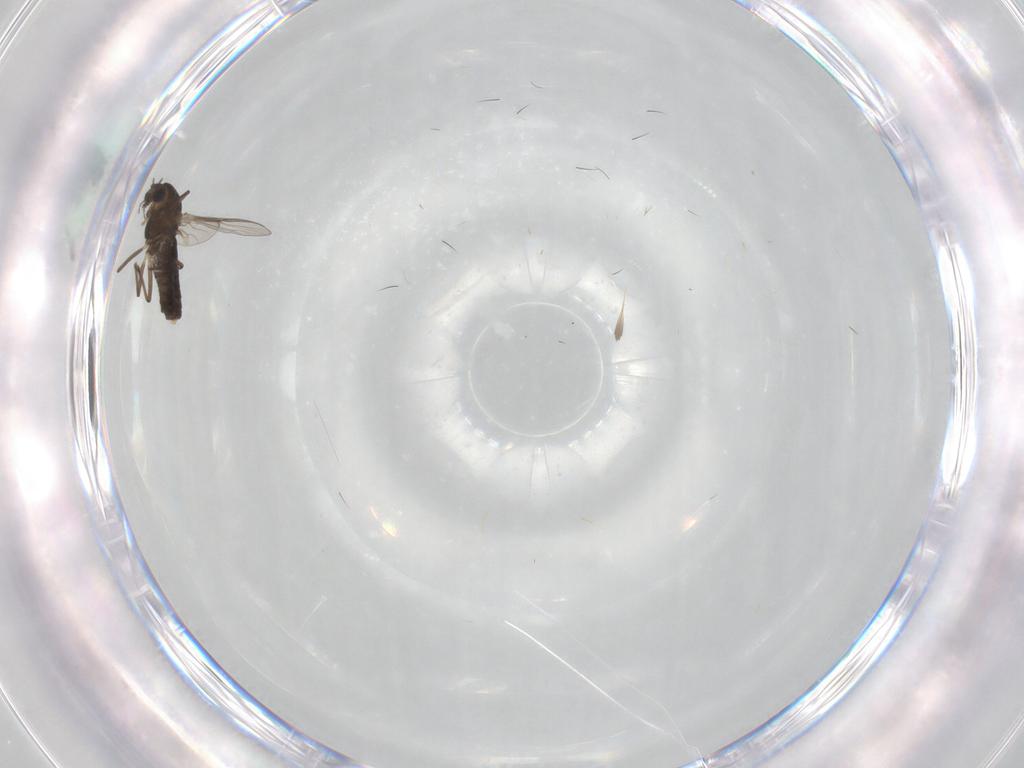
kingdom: Animalia
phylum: Arthropoda
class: Insecta
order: Diptera
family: Chironomidae
